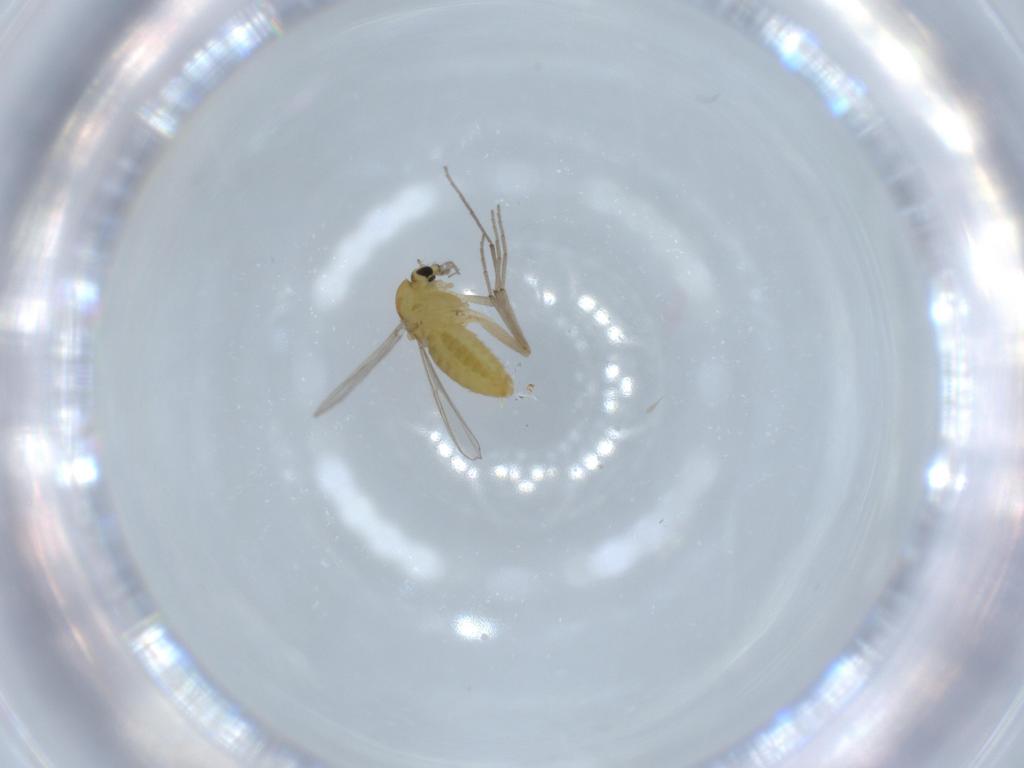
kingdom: Animalia
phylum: Arthropoda
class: Insecta
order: Diptera
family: Chironomidae
